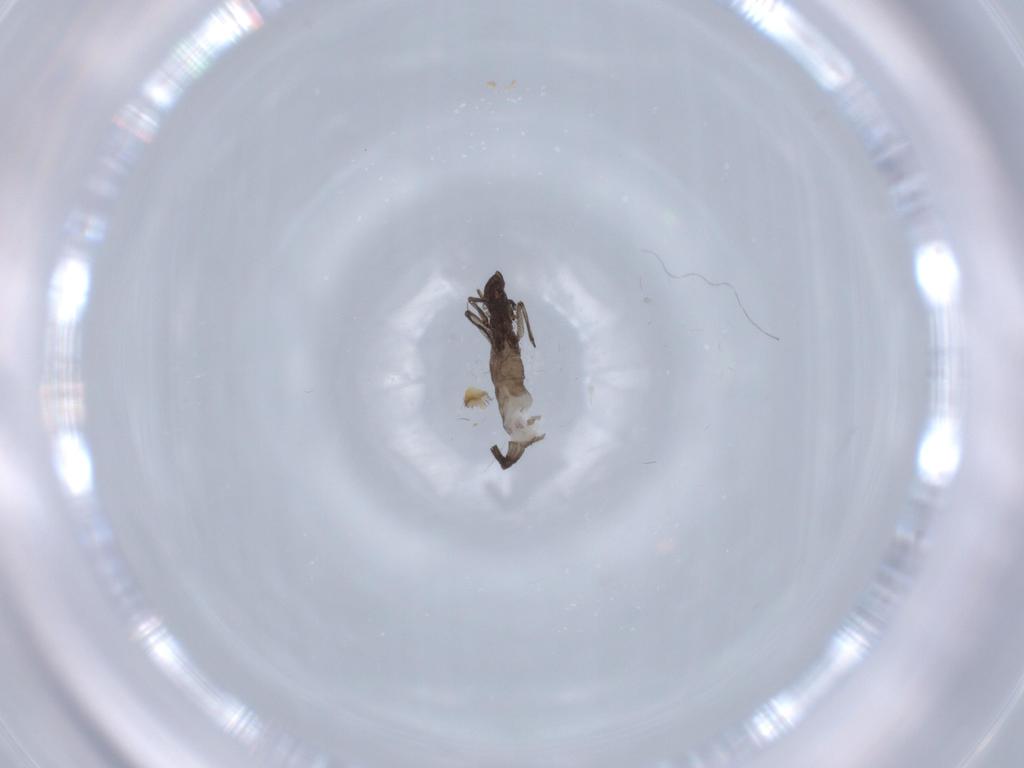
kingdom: Animalia
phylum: Arthropoda
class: Insecta
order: Diptera
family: Sciaridae
